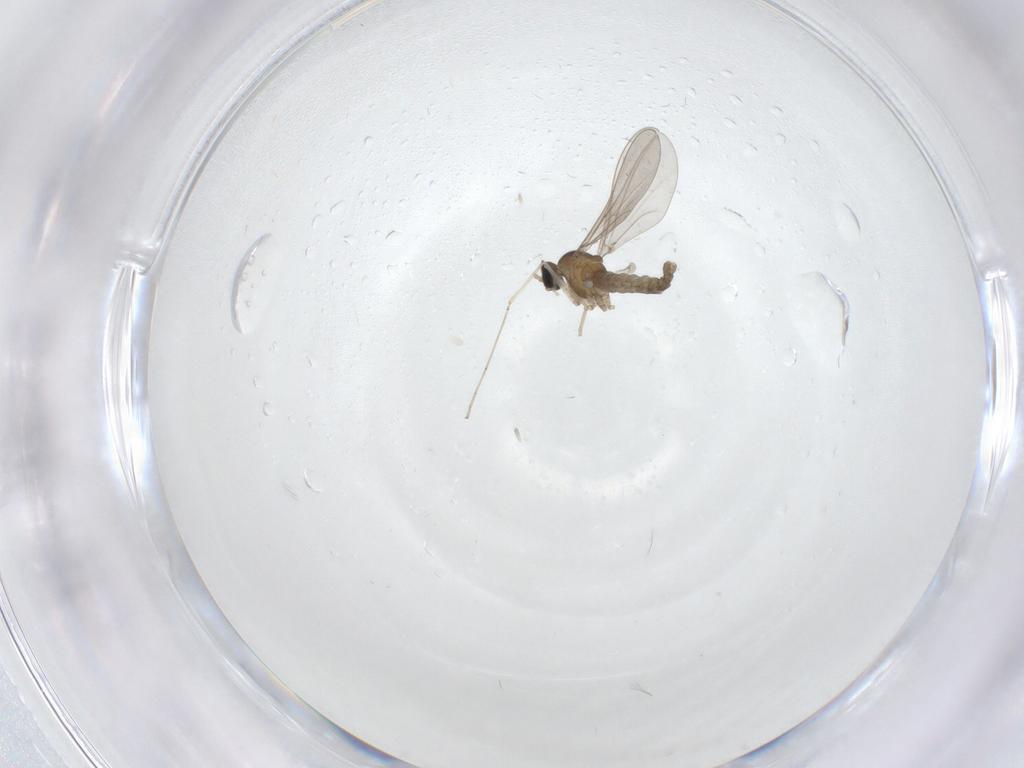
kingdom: Animalia
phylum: Arthropoda
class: Insecta
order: Diptera
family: Phoridae
